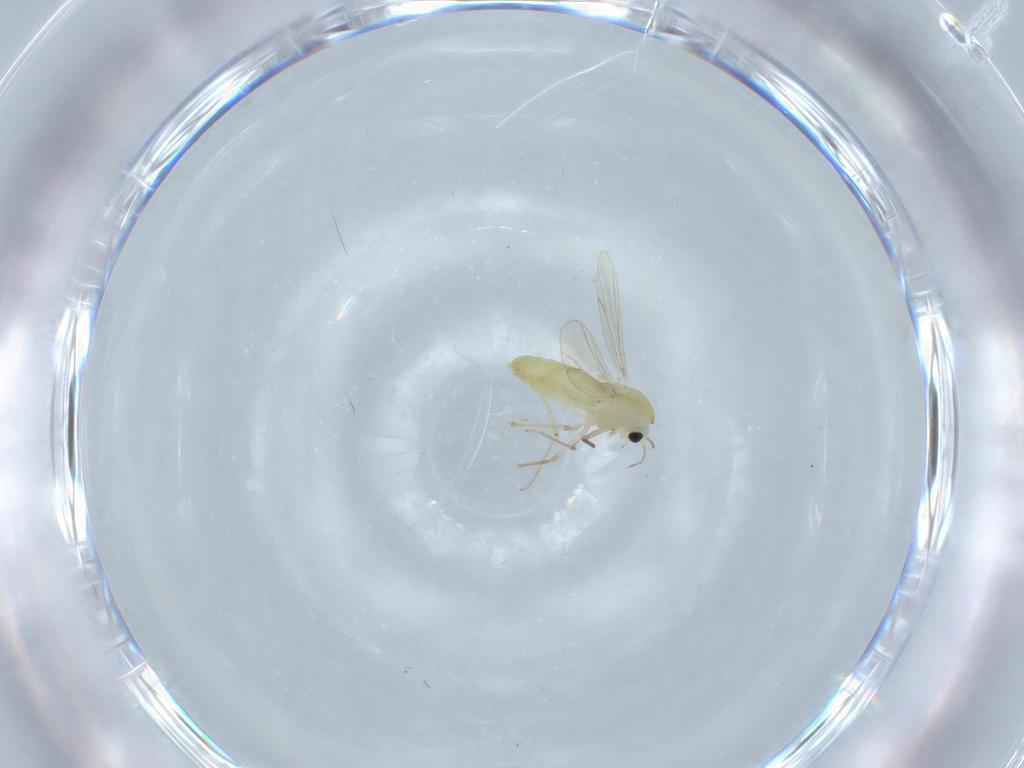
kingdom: Animalia
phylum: Arthropoda
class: Insecta
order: Diptera
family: Chironomidae
